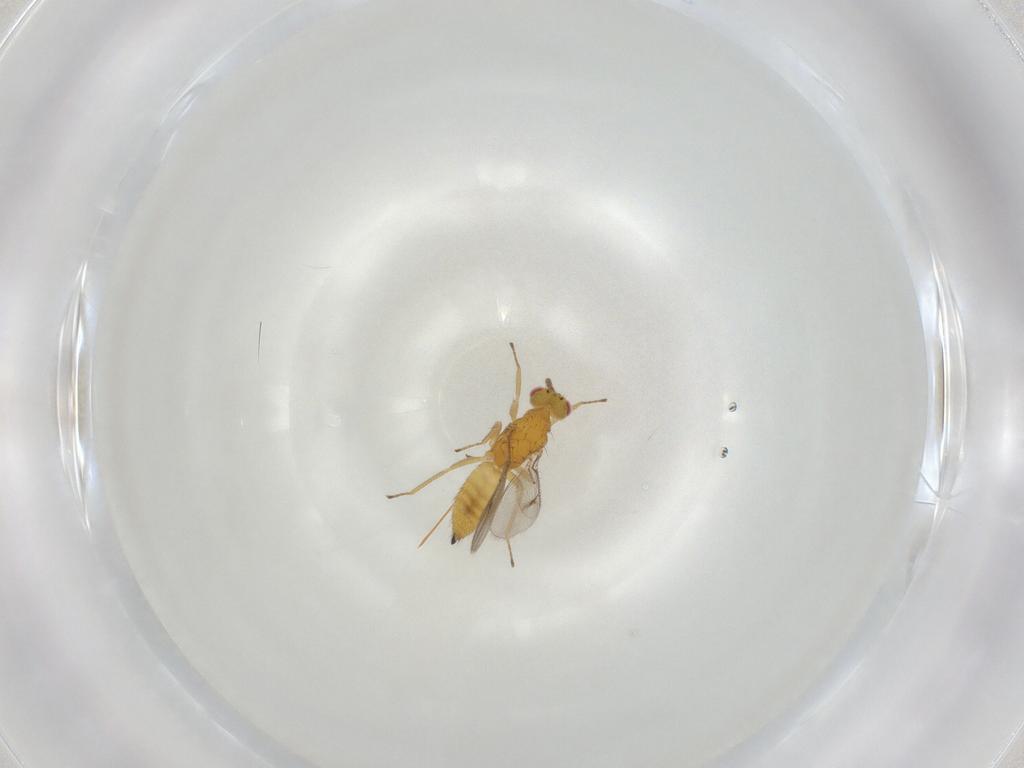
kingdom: Animalia
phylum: Arthropoda
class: Insecta
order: Hymenoptera
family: Eulophidae
